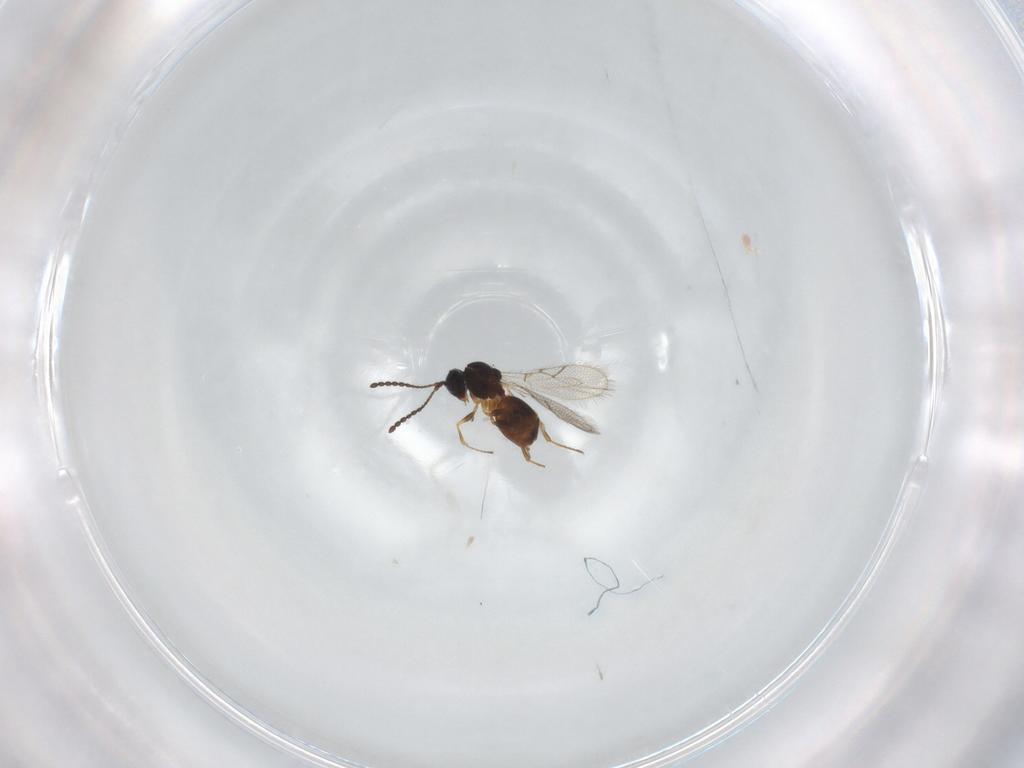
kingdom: Animalia
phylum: Arthropoda
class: Insecta
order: Hymenoptera
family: Figitidae
